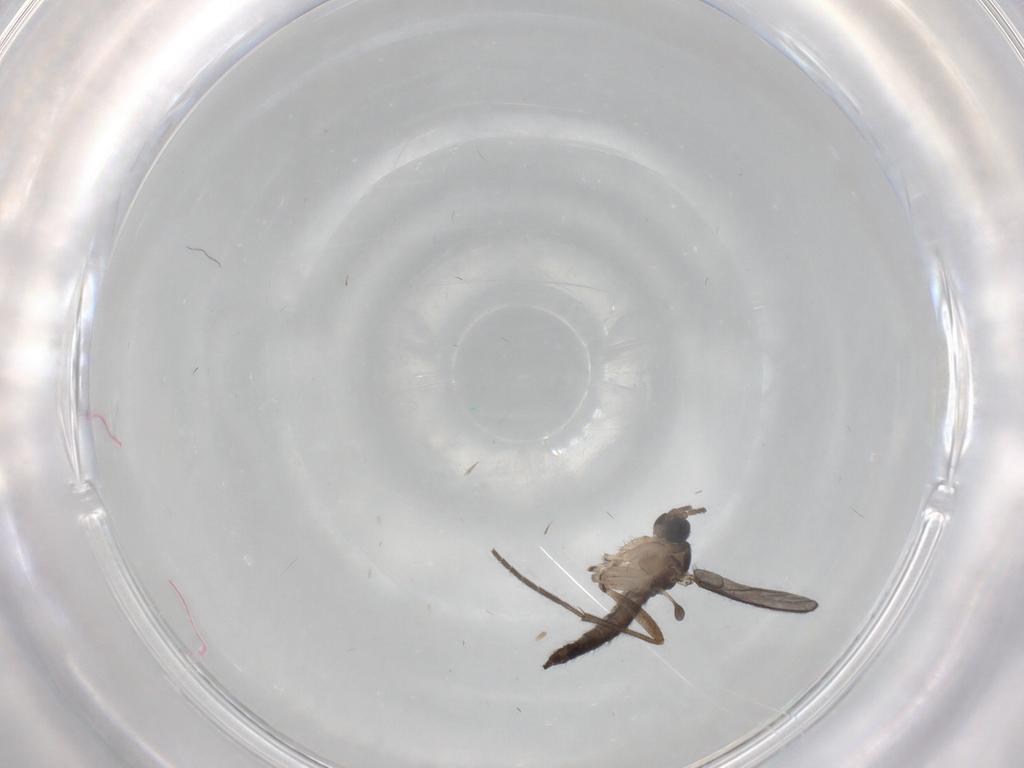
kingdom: Animalia
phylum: Arthropoda
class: Insecta
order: Diptera
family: Sciaridae
